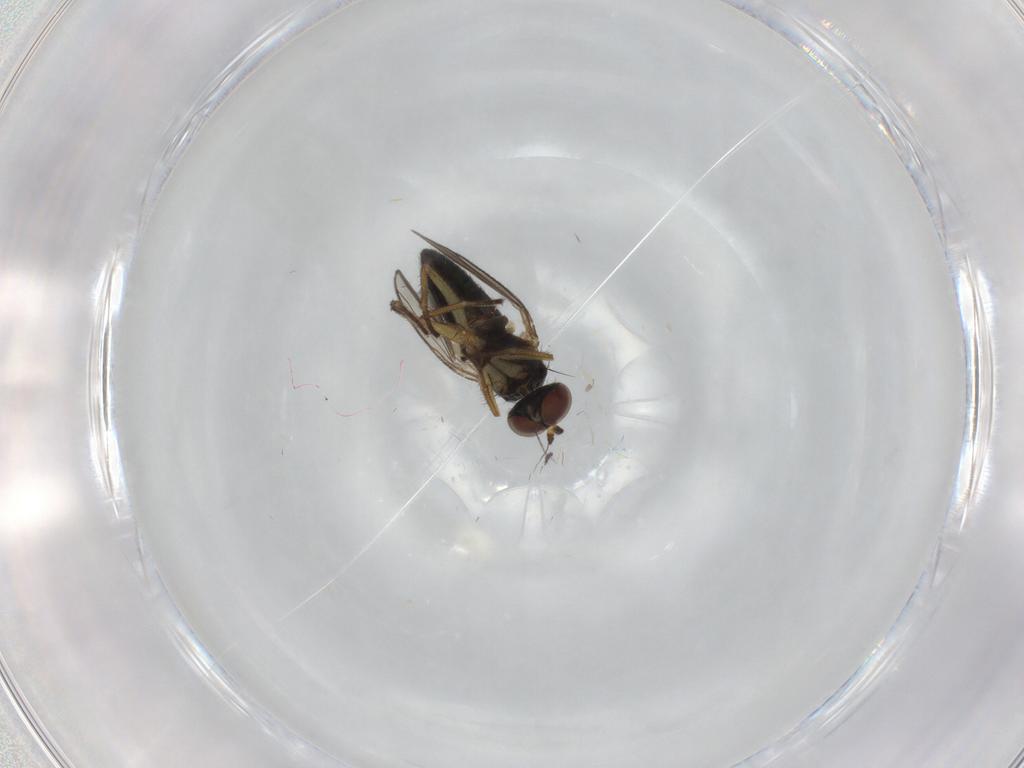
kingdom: Animalia
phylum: Arthropoda
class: Insecta
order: Diptera
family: Dolichopodidae
